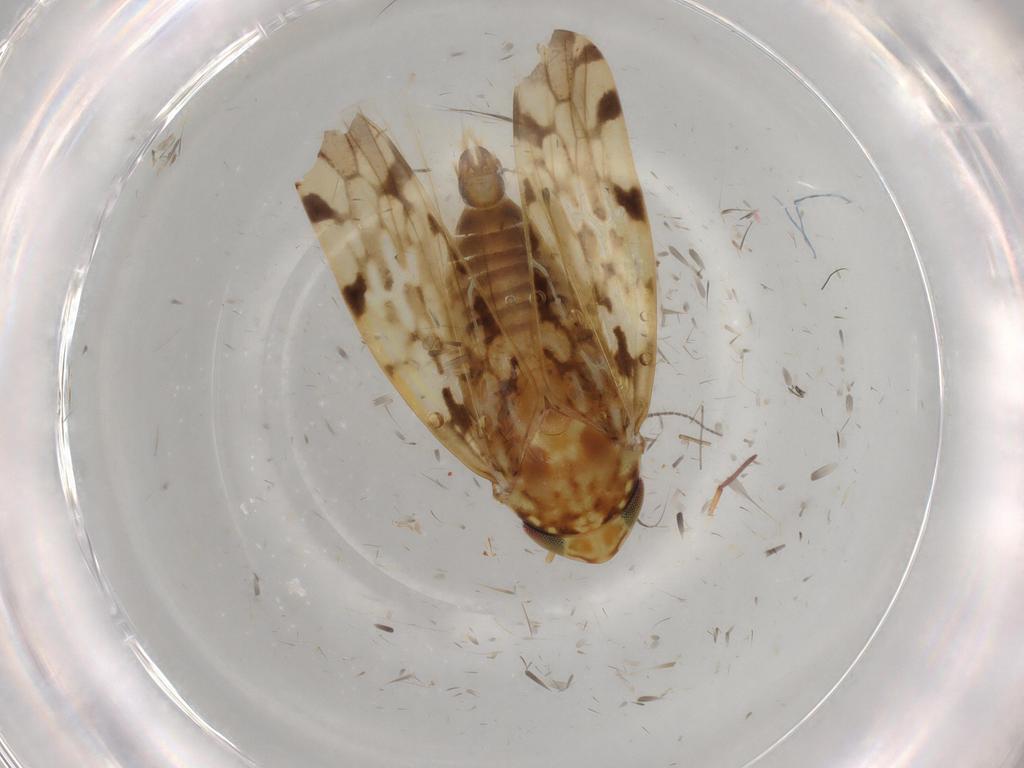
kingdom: Animalia
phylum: Arthropoda
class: Insecta
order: Hemiptera
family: Cicadellidae
